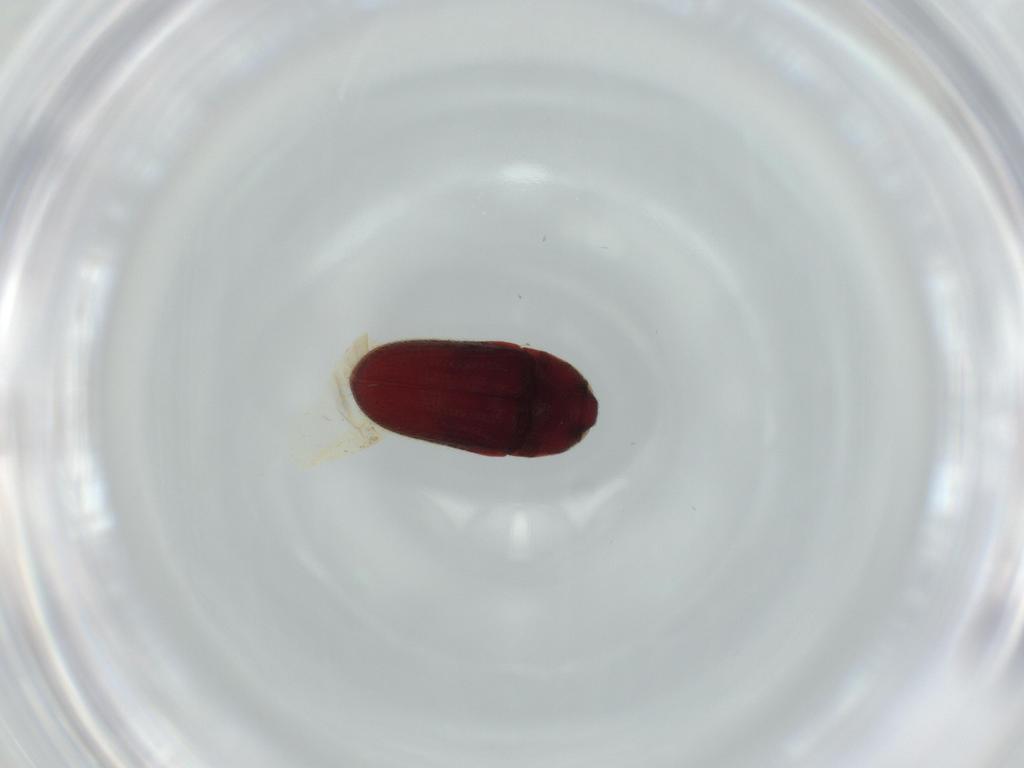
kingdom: Animalia
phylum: Arthropoda
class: Insecta
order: Coleoptera
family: Throscidae
